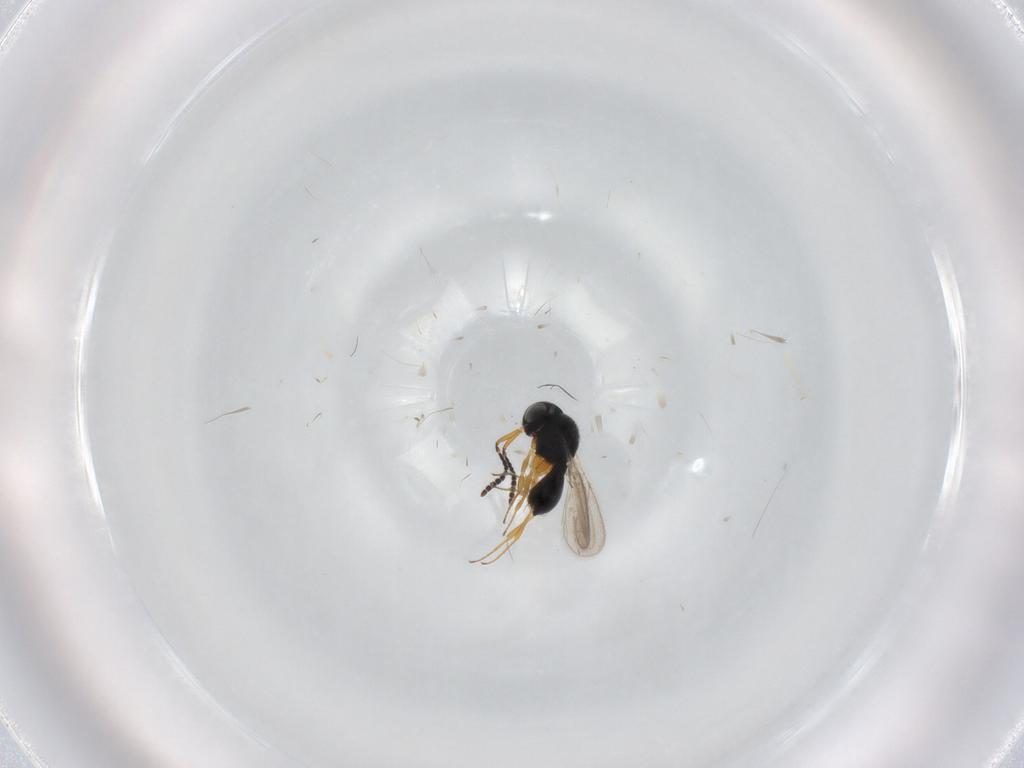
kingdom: Animalia
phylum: Arthropoda
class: Insecta
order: Hymenoptera
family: Scelionidae
